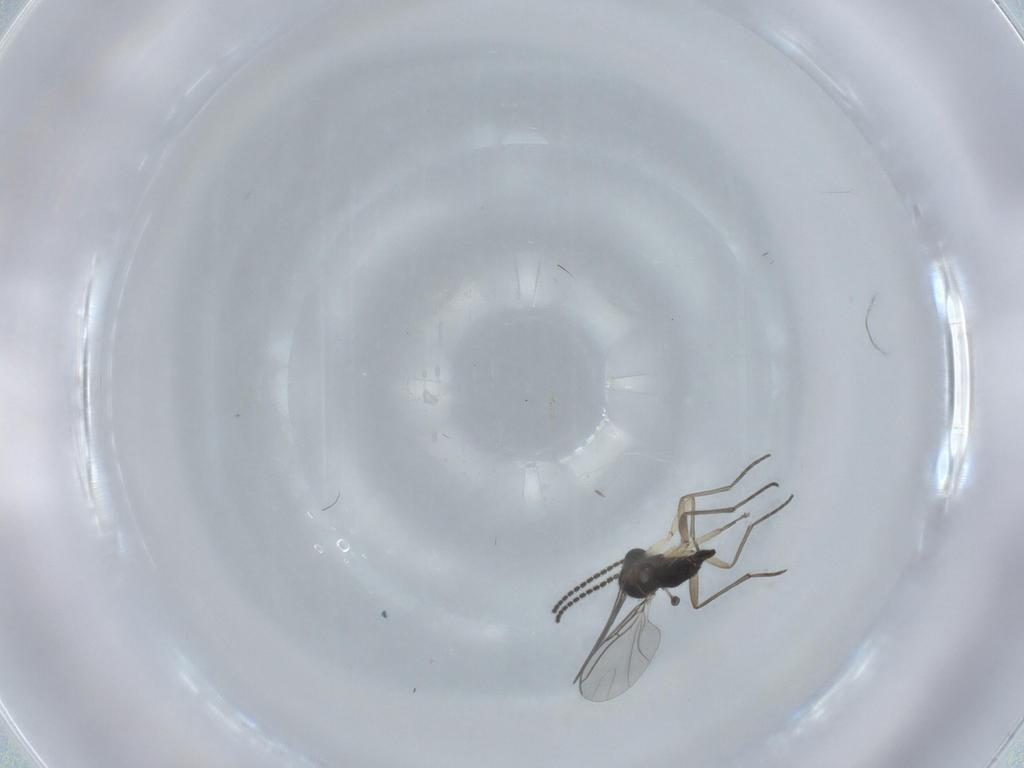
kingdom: Animalia
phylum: Arthropoda
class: Insecta
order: Diptera
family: Sciaridae
